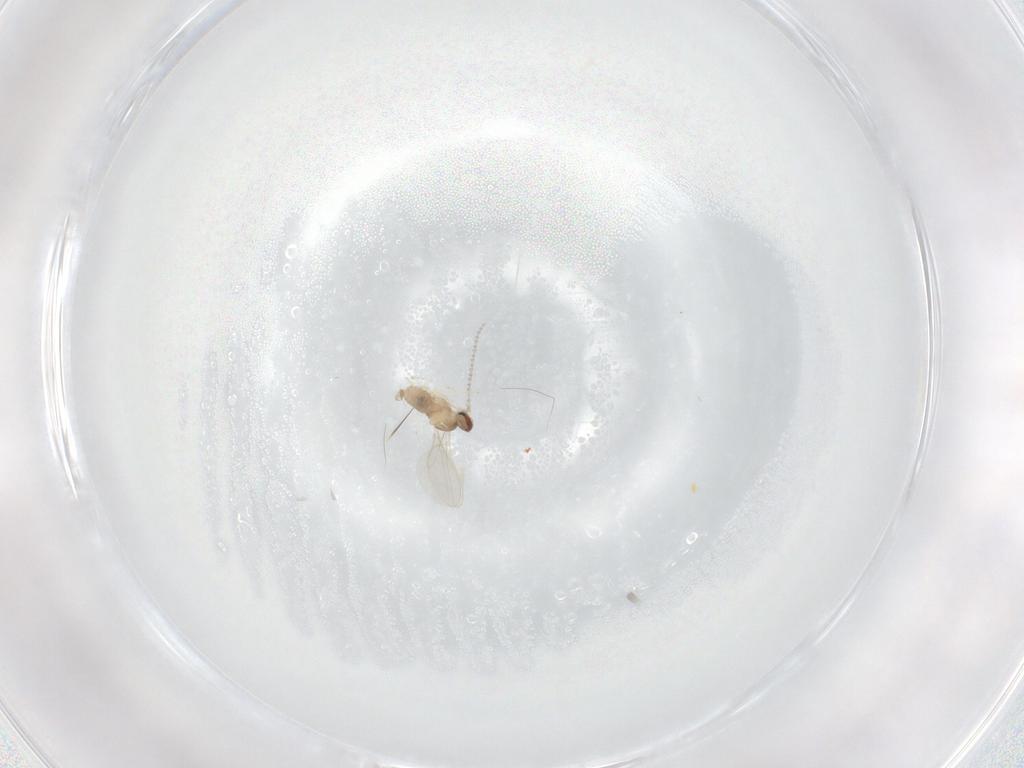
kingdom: Animalia
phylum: Arthropoda
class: Insecta
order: Diptera
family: Cecidomyiidae
